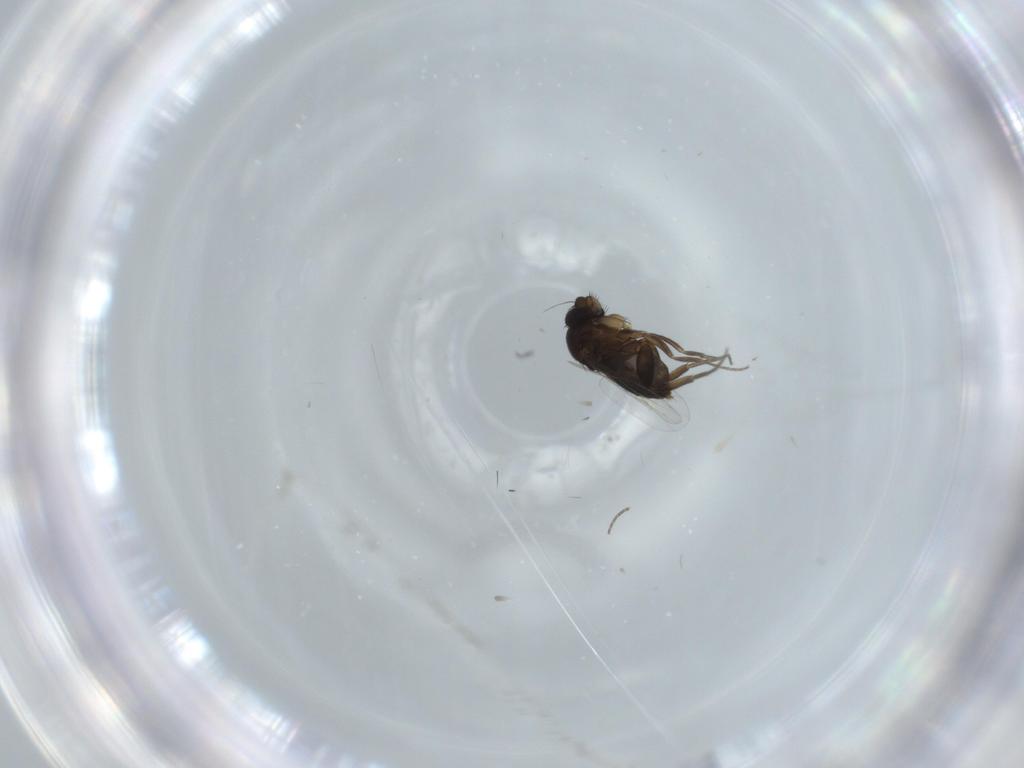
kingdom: Animalia
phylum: Arthropoda
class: Insecta
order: Diptera
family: Phoridae
